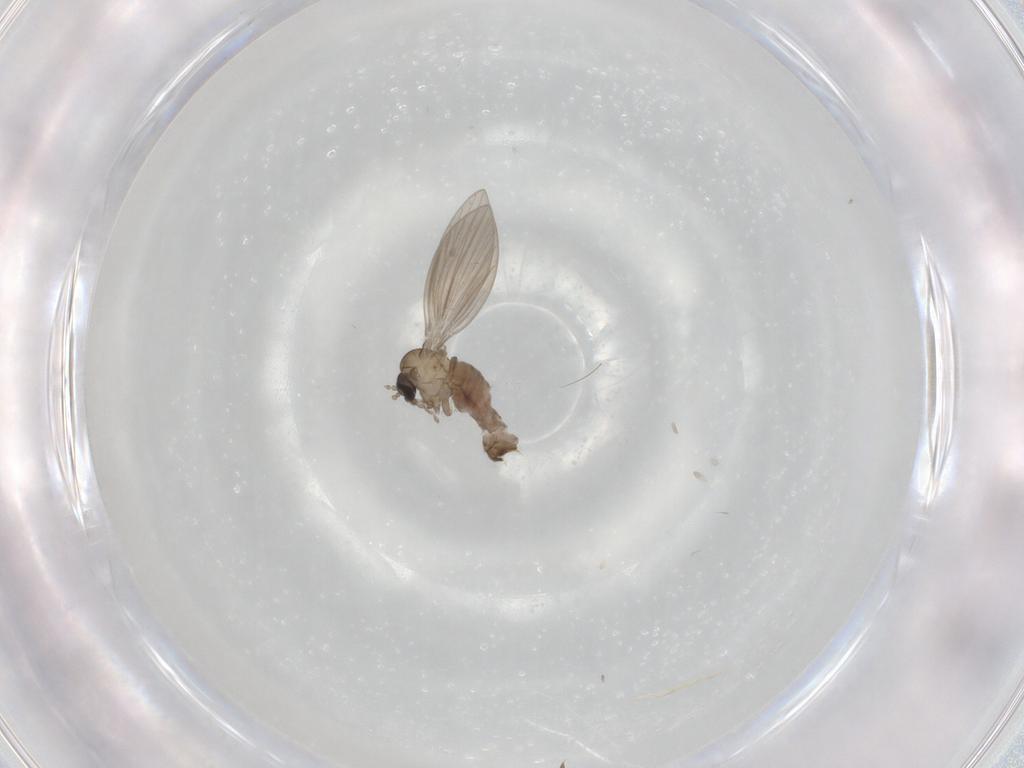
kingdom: Animalia
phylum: Arthropoda
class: Insecta
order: Diptera
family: Psychodidae
